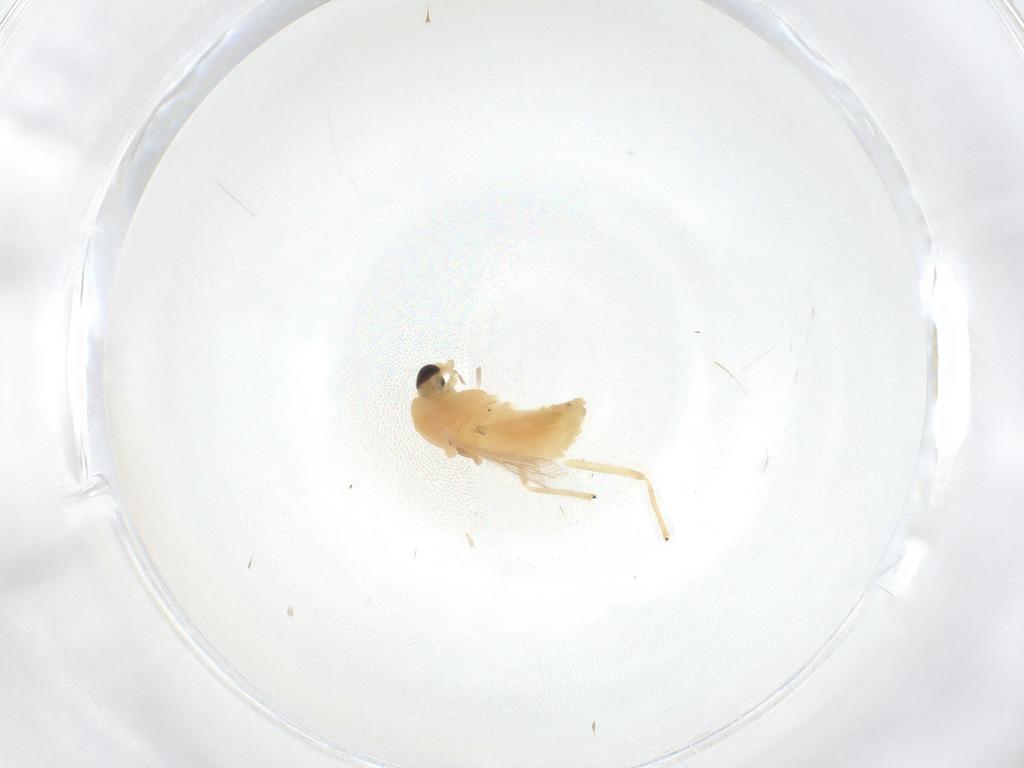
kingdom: Animalia
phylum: Arthropoda
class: Insecta
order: Diptera
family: Chironomidae
